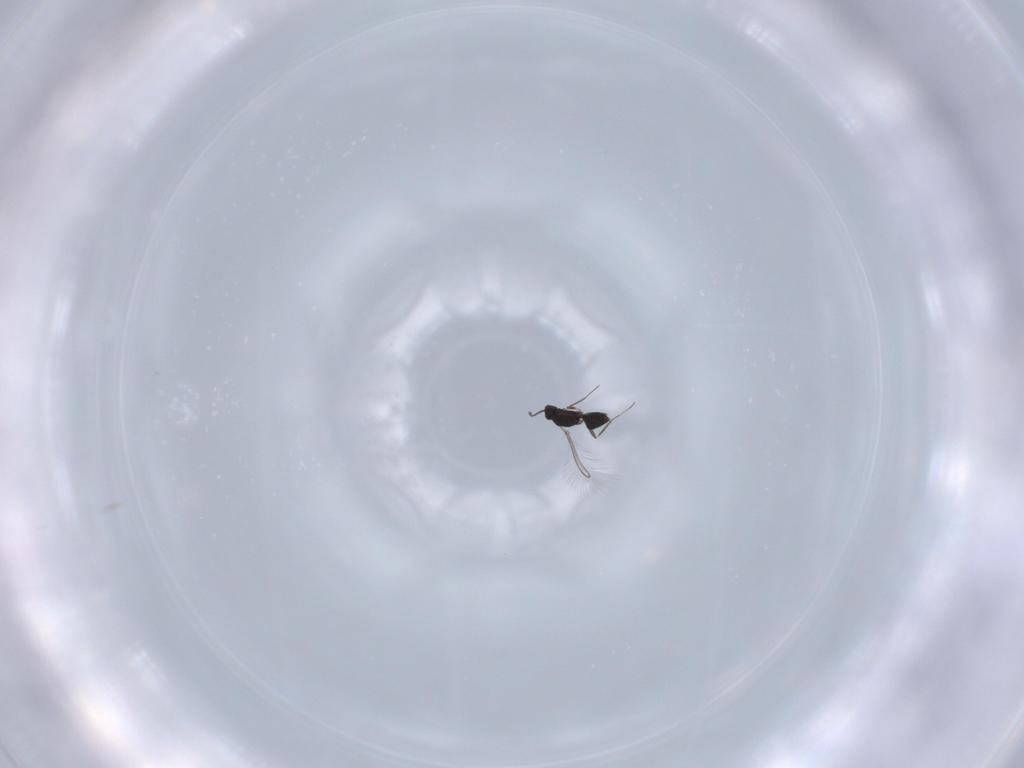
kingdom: Animalia
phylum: Arthropoda
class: Insecta
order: Hymenoptera
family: Mymaridae
